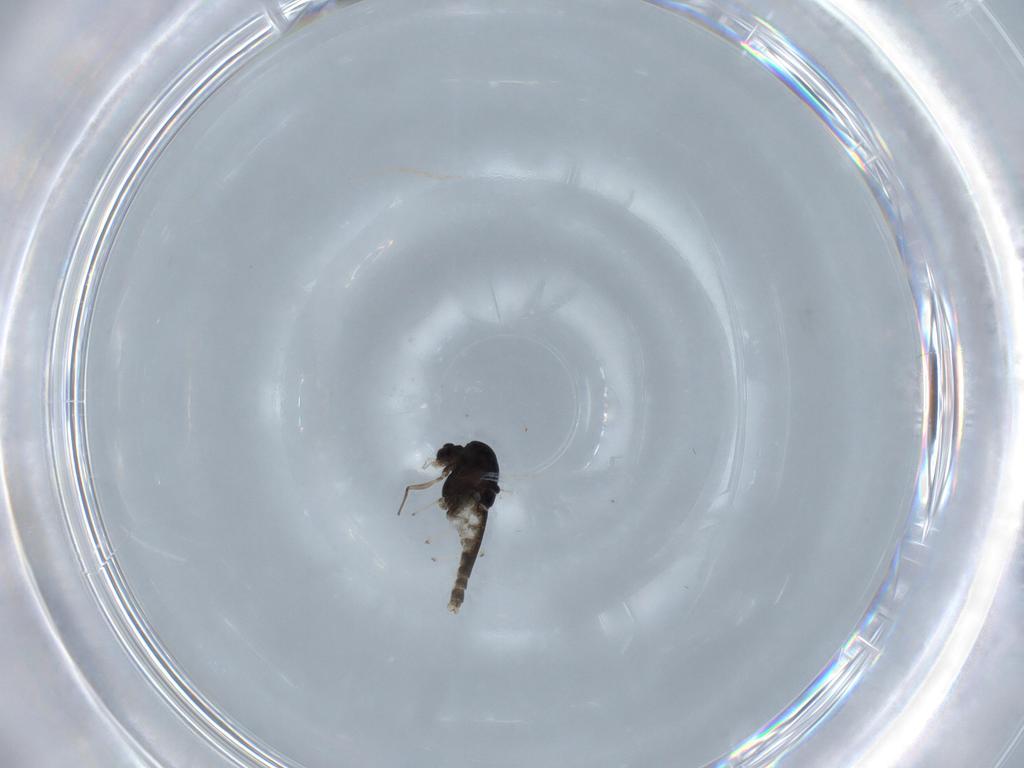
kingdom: Animalia
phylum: Arthropoda
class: Insecta
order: Diptera
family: Chironomidae
